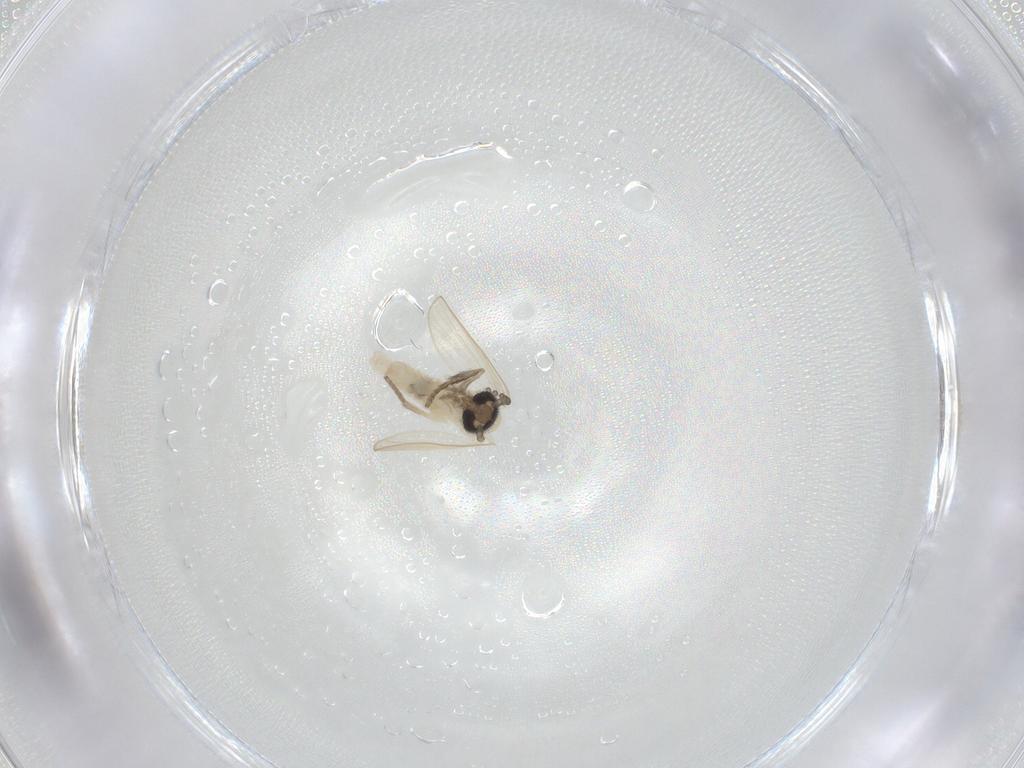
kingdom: Animalia
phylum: Arthropoda
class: Insecta
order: Diptera
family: Psychodidae
